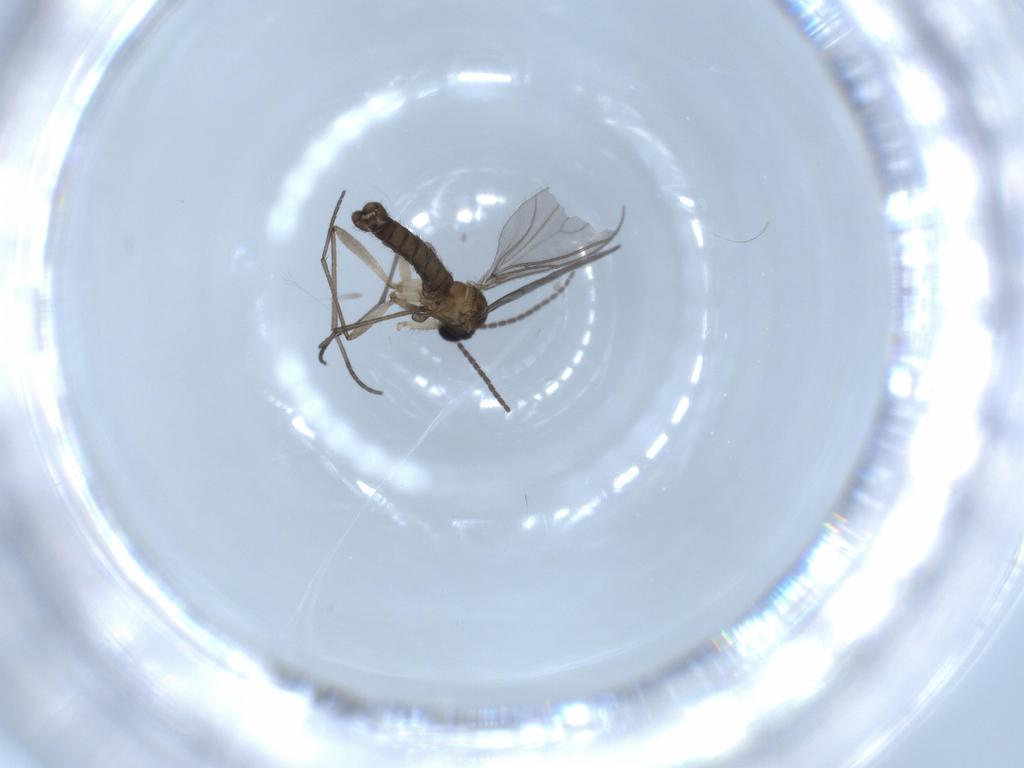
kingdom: Animalia
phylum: Arthropoda
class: Insecta
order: Diptera
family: Sciaridae
